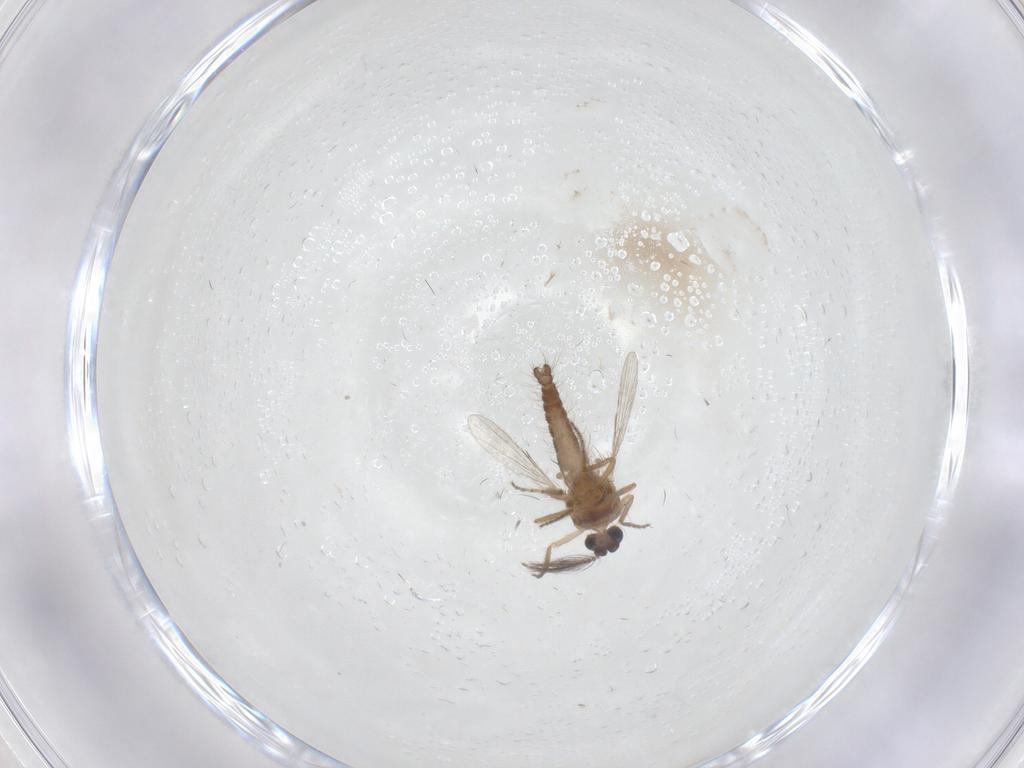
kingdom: Animalia
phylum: Arthropoda
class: Insecta
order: Diptera
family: Ceratopogonidae
